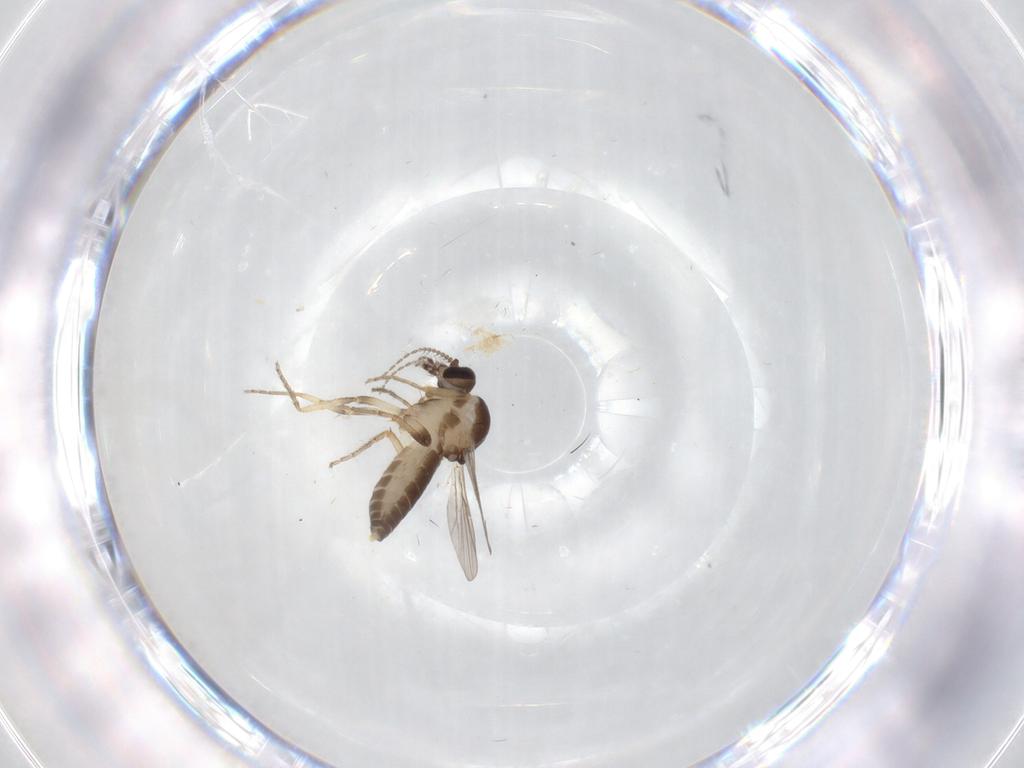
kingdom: Animalia
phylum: Arthropoda
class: Insecta
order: Diptera
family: Ceratopogonidae
